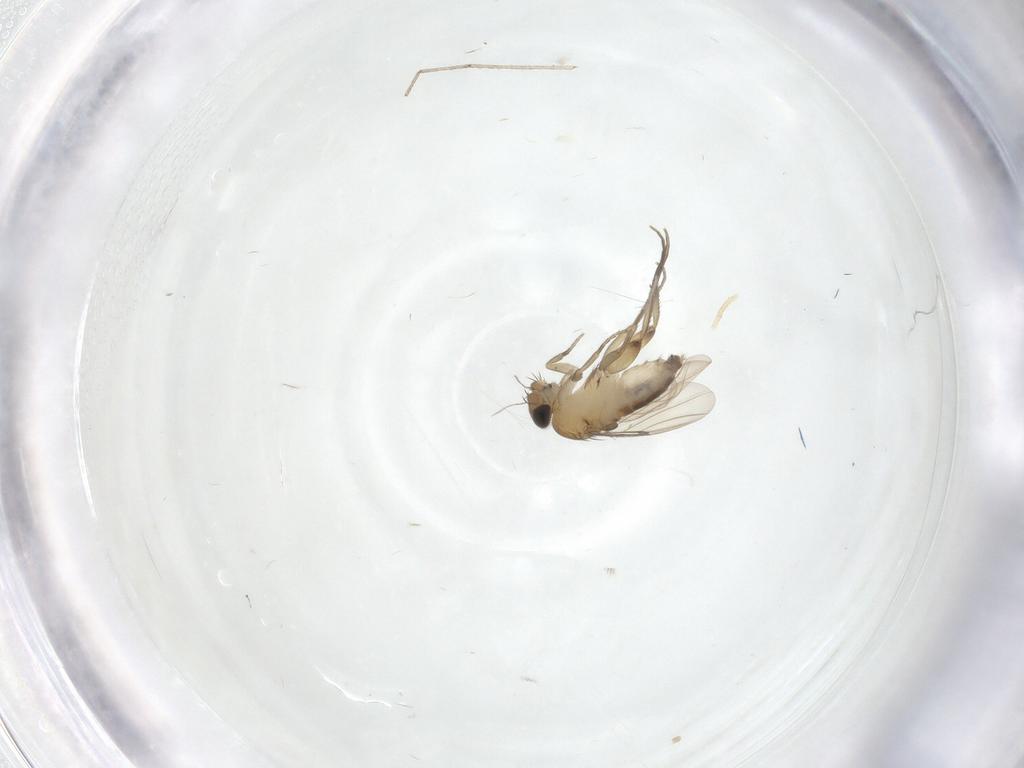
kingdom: Animalia
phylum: Arthropoda
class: Insecta
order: Diptera
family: Phoridae
